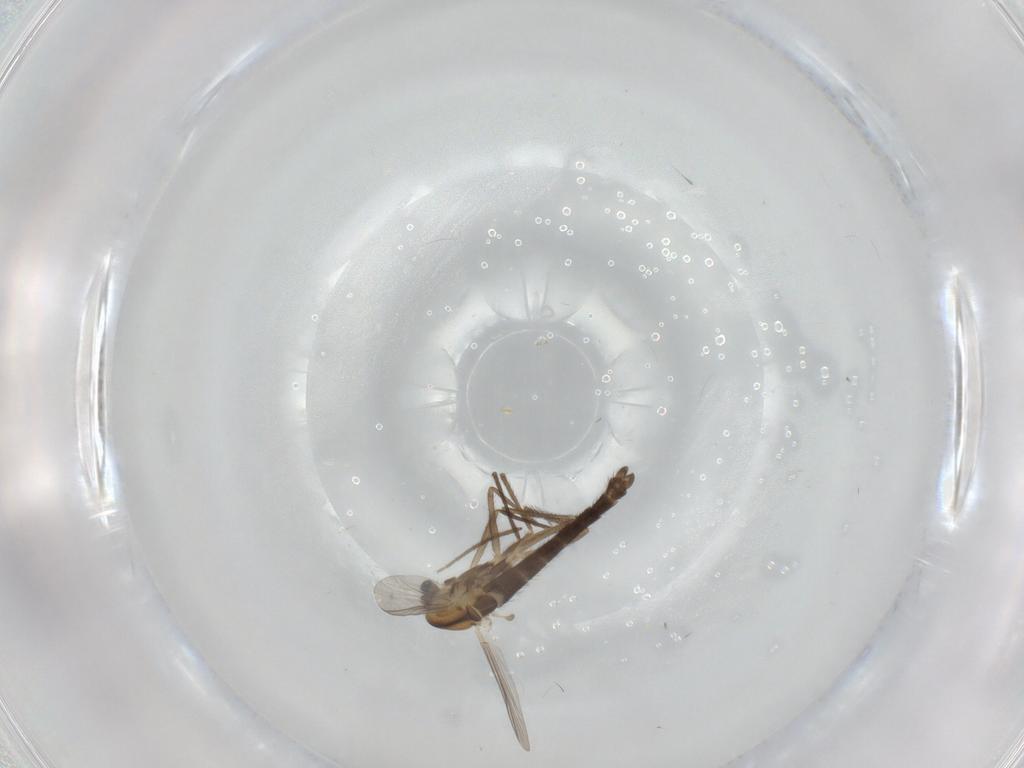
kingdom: Animalia
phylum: Arthropoda
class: Insecta
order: Diptera
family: Chironomidae
